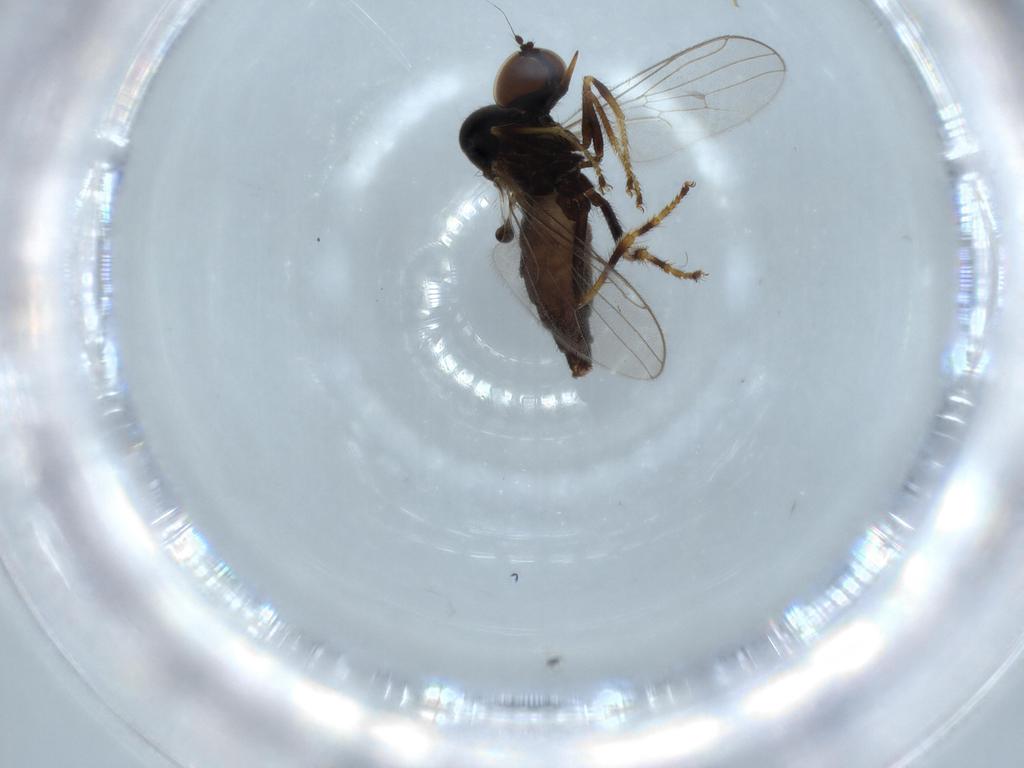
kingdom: Animalia
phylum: Arthropoda
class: Insecta
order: Diptera
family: Hybotidae
